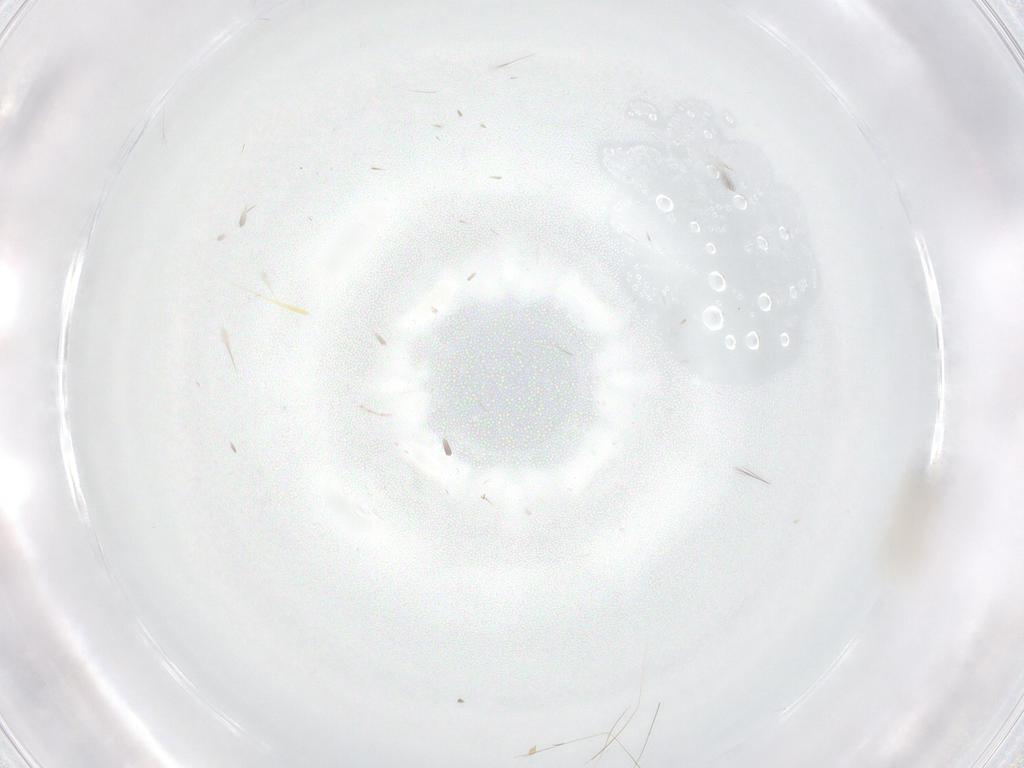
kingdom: Animalia
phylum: Arthropoda
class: Insecta
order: Diptera
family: Cecidomyiidae
